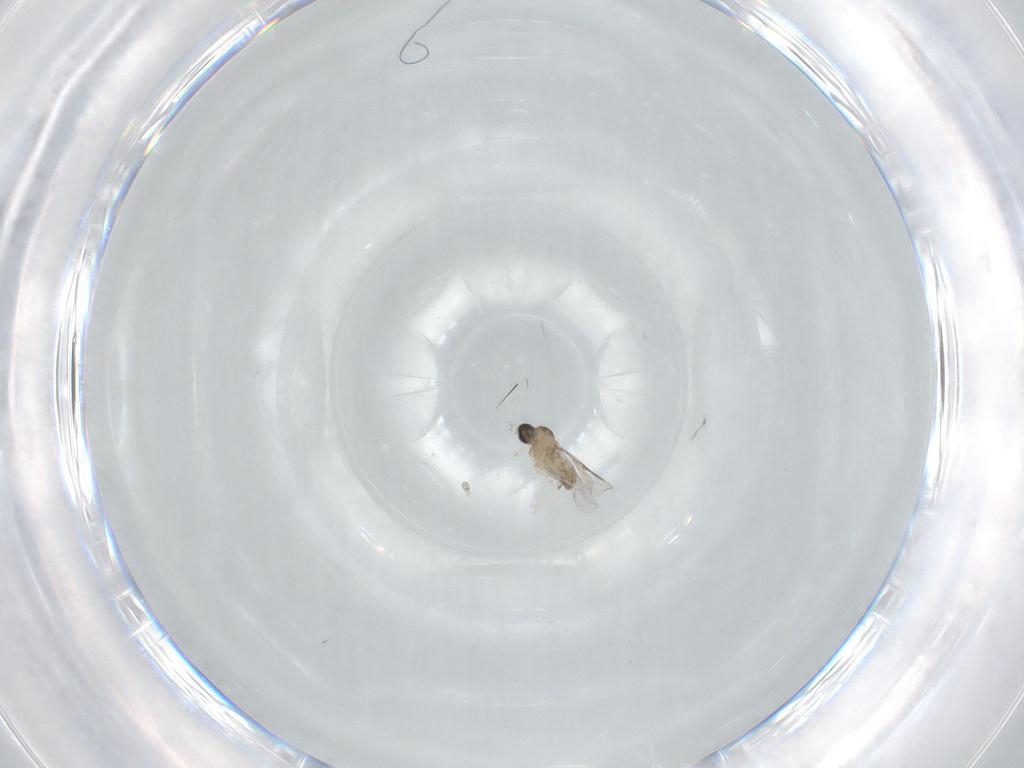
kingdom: Animalia
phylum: Arthropoda
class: Insecta
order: Diptera
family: Cecidomyiidae
